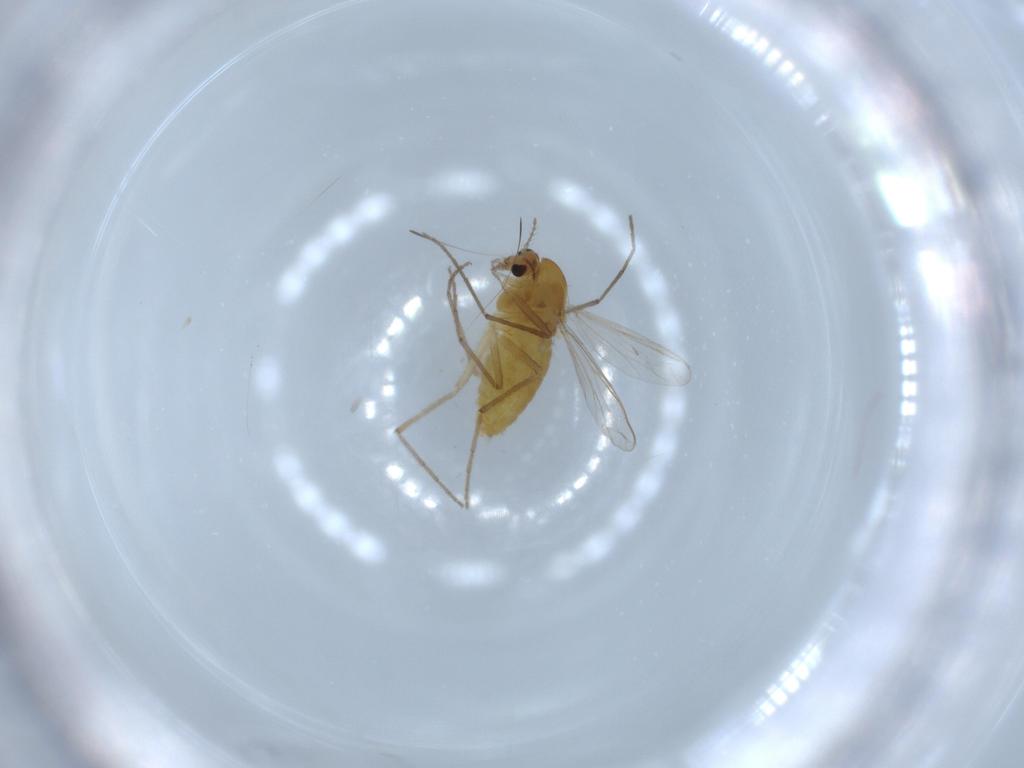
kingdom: Animalia
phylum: Arthropoda
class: Insecta
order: Diptera
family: Chironomidae
